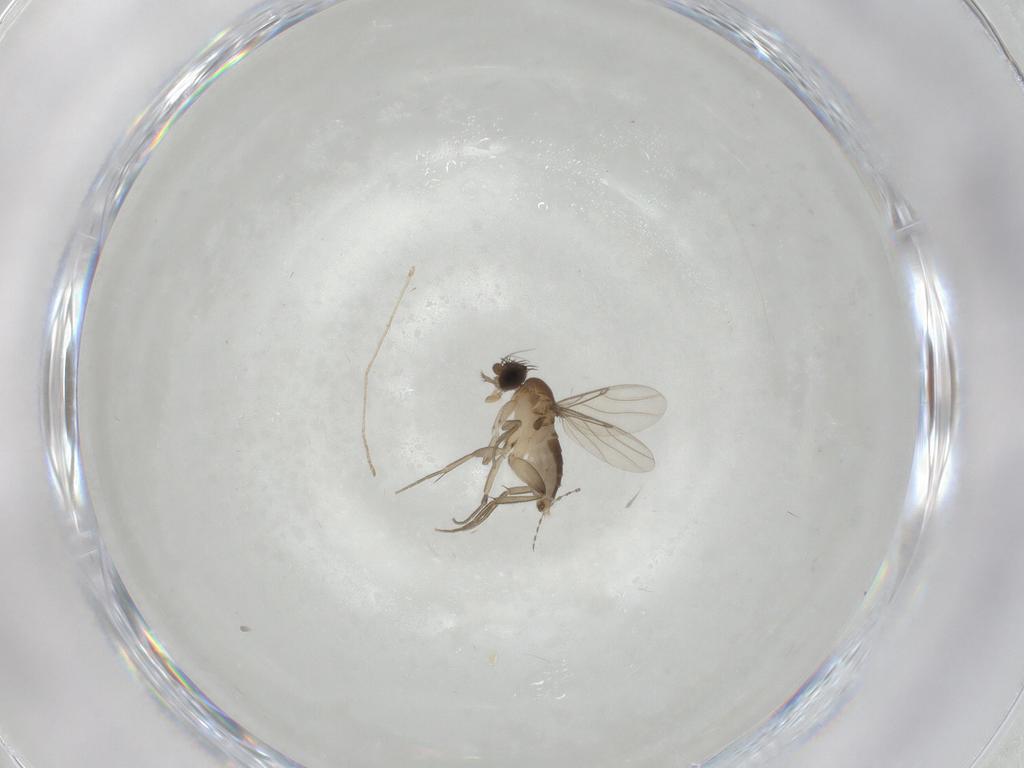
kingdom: Animalia
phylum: Arthropoda
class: Insecta
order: Diptera
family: Phoridae
